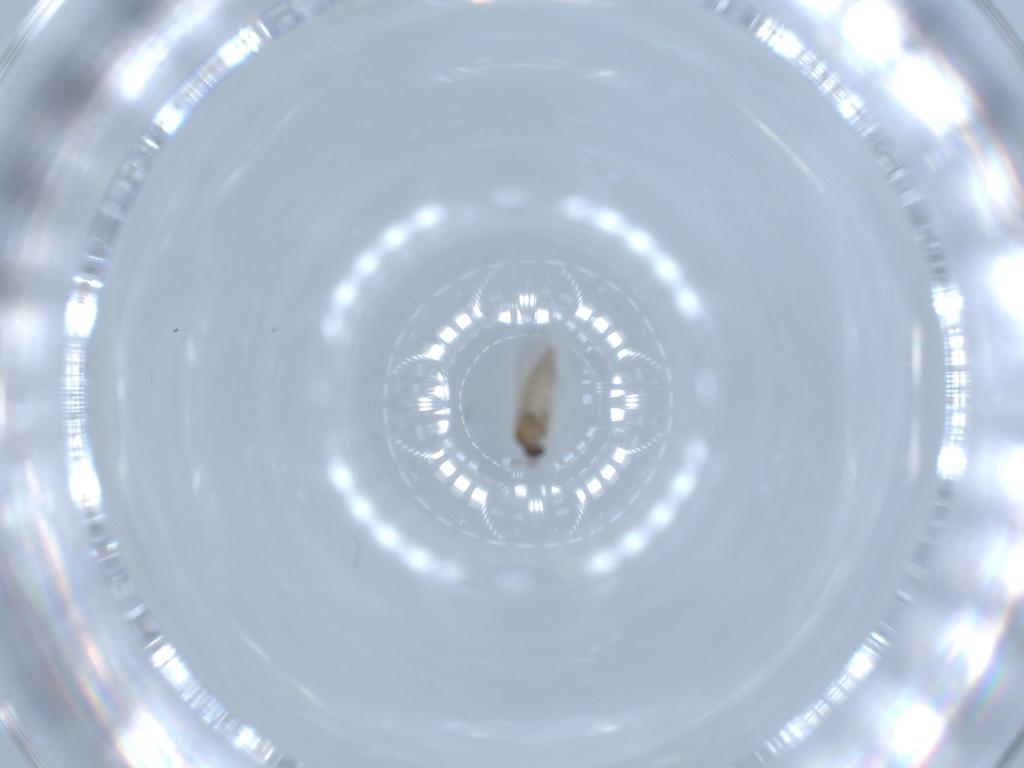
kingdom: Animalia
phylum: Arthropoda
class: Insecta
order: Diptera
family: Cecidomyiidae
